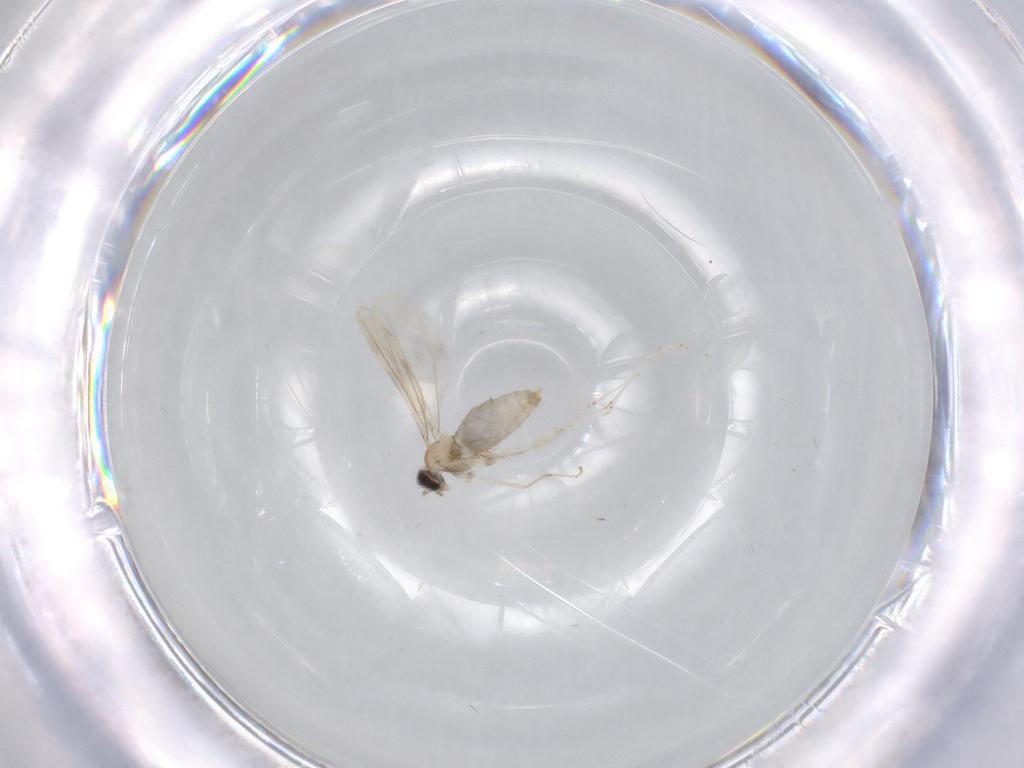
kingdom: Animalia
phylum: Arthropoda
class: Insecta
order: Diptera
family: Cecidomyiidae
